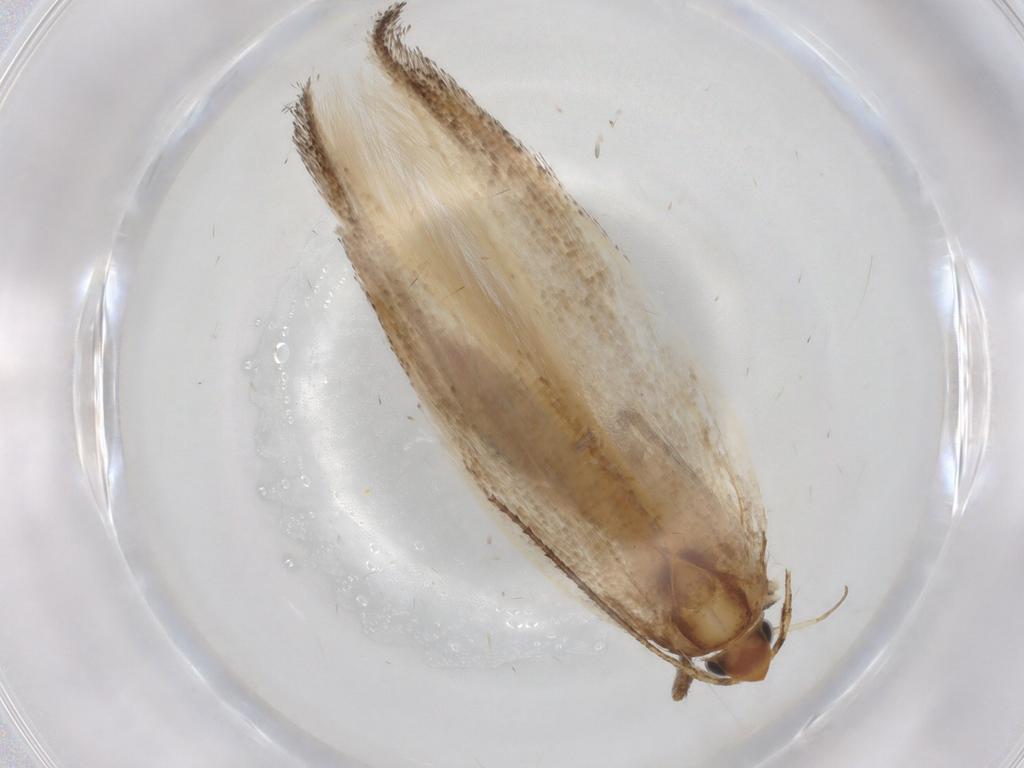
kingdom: Animalia
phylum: Arthropoda
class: Insecta
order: Lepidoptera
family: Cosmopterigidae
